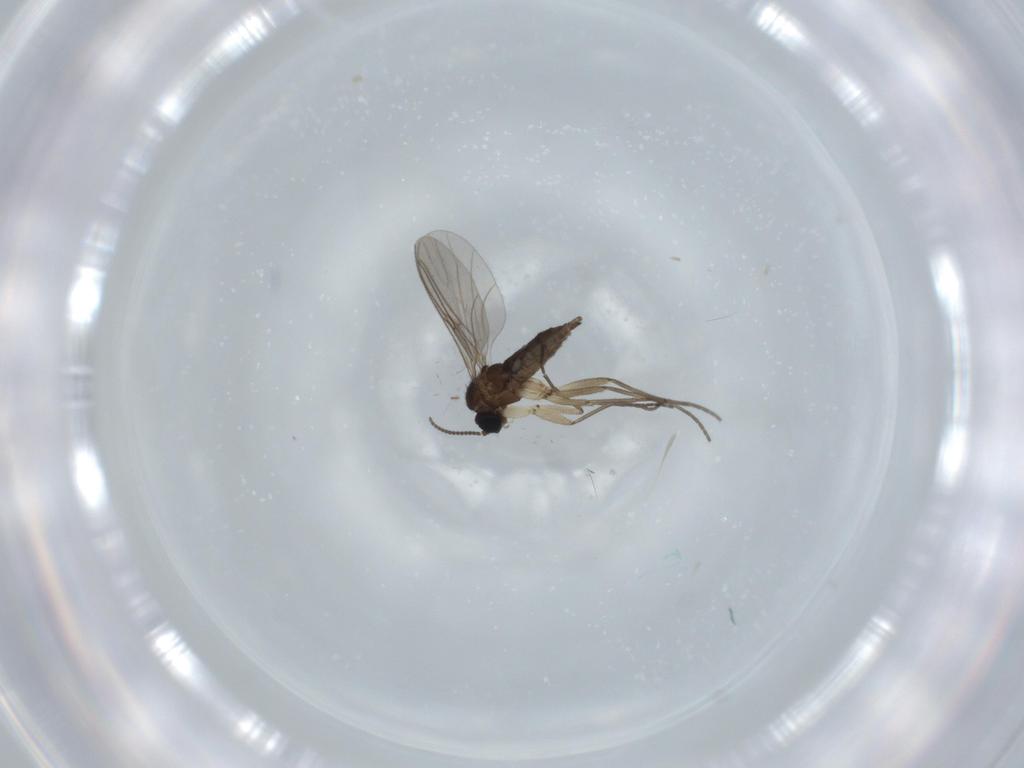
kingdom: Animalia
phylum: Arthropoda
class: Insecta
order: Diptera
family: Sciaridae
